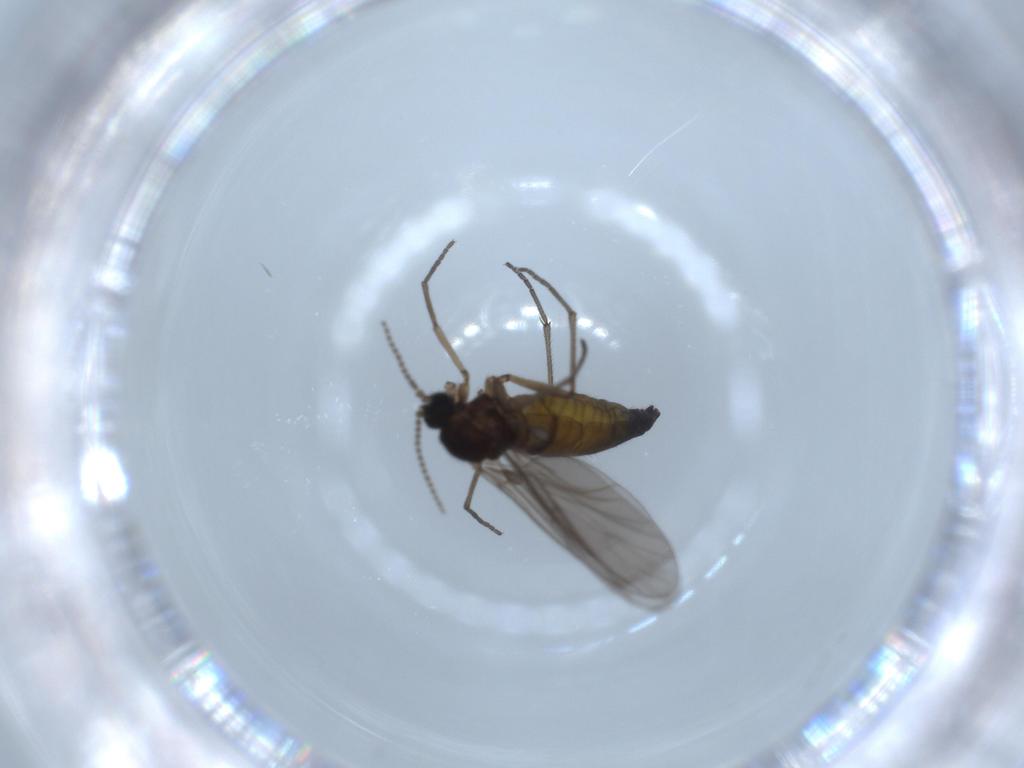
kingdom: Animalia
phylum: Arthropoda
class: Insecta
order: Diptera
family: Sciaridae
